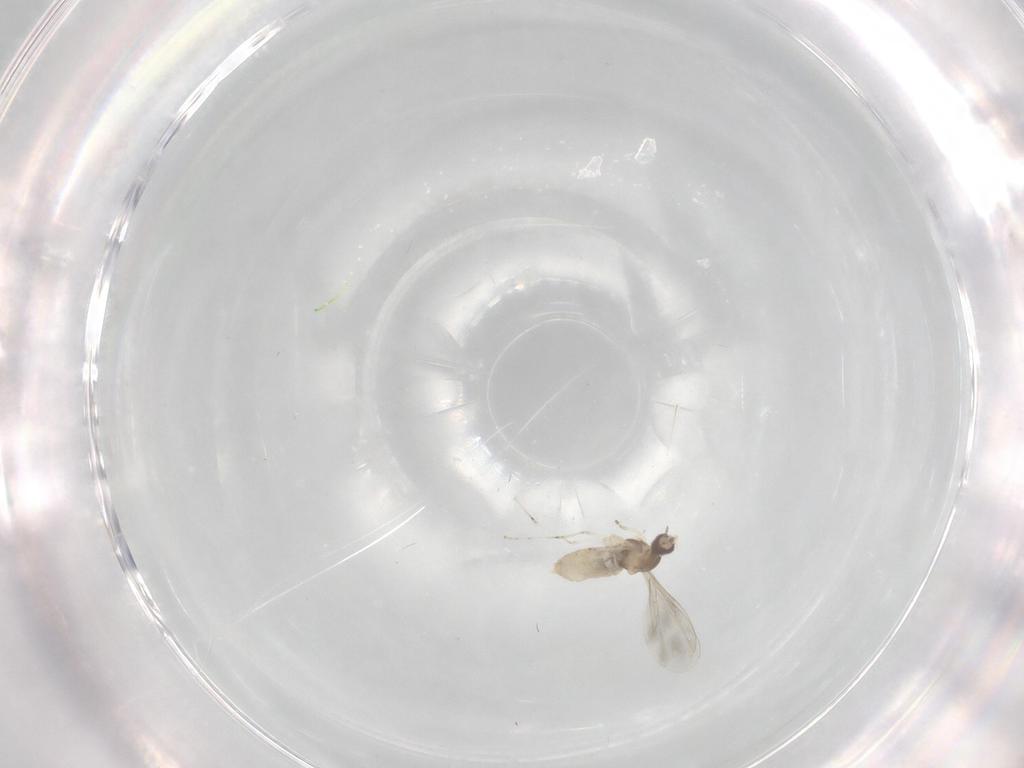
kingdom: Animalia
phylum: Arthropoda
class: Insecta
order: Diptera
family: Cecidomyiidae
